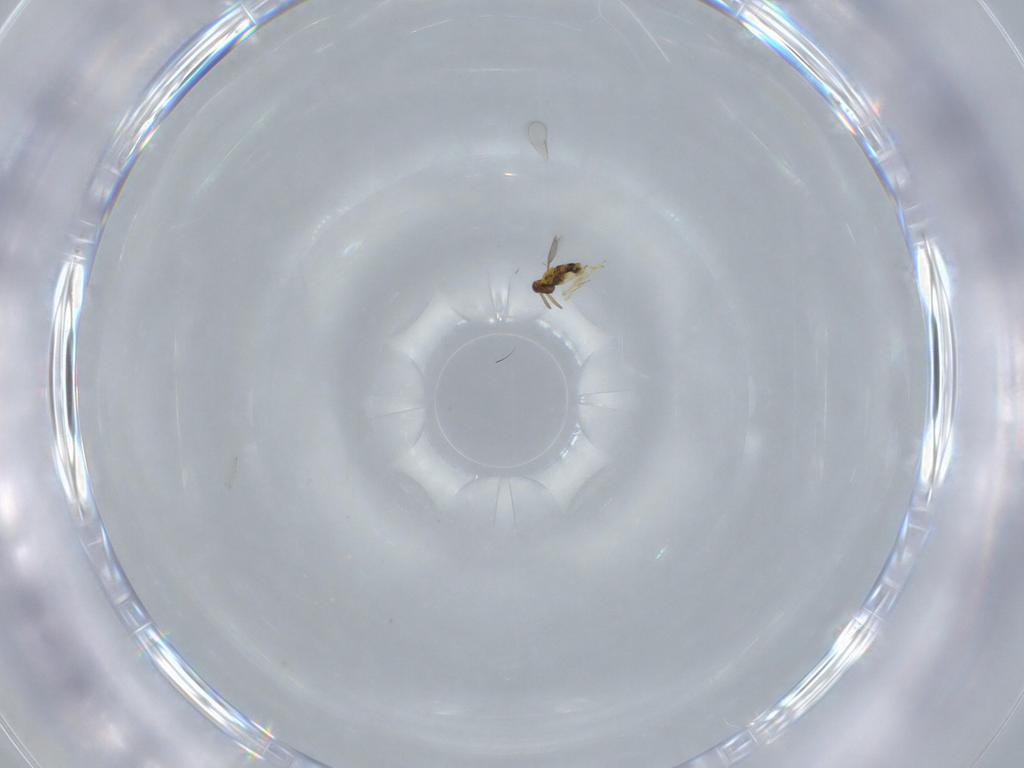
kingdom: Animalia
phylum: Arthropoda
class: Insecta
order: Hymenoptera
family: Aphelinidae
